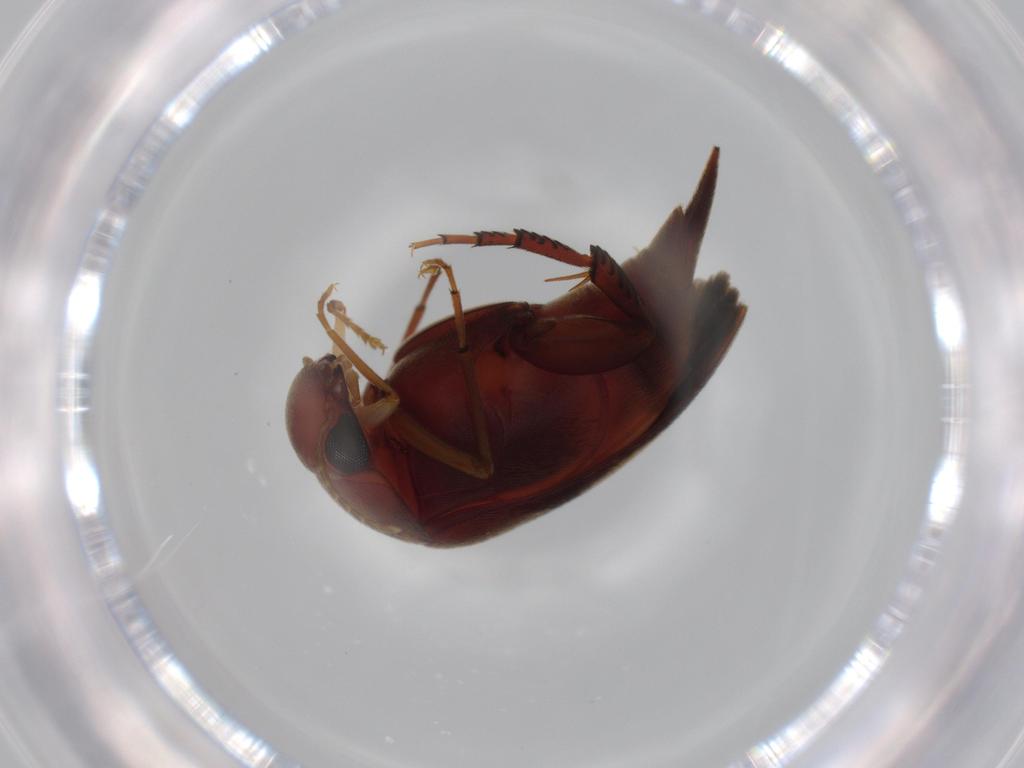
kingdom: Animalia
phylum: Arthropoda
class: Insecta
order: Coleoptera
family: Scraptiidae
